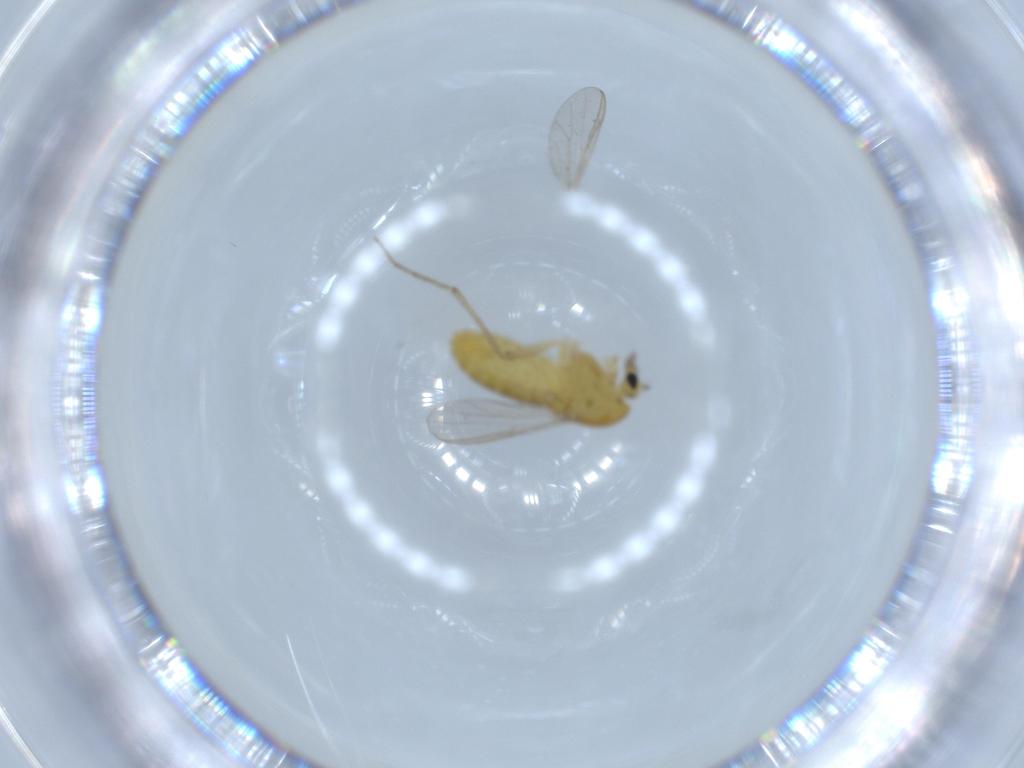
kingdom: Animalia
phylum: Arthropoda
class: Insecta
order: Diptera
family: Chironomidae
